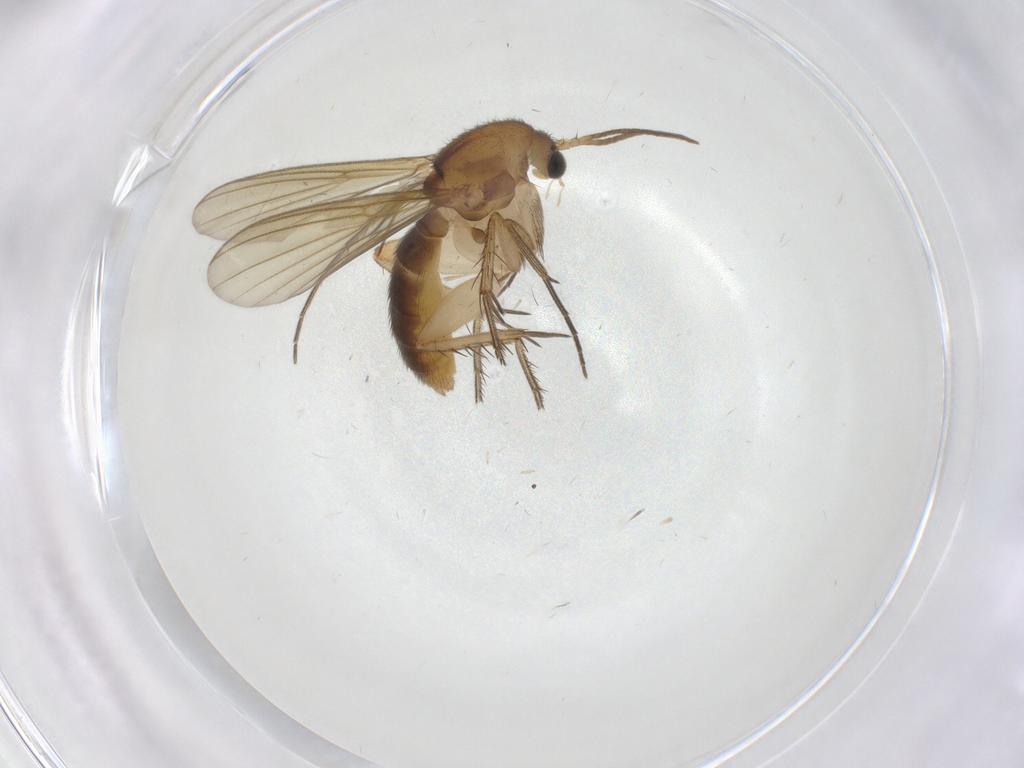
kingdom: Animalia
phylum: Arthropoda
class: Insecta
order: Diptera
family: Mycetophilidae
